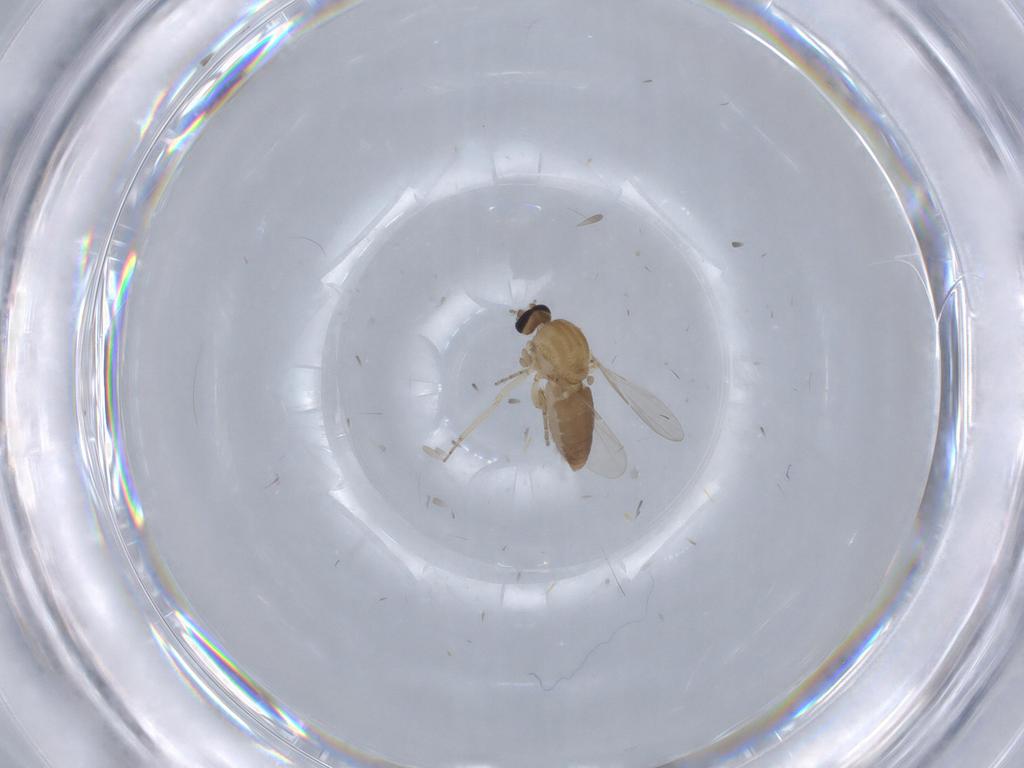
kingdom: Animalia
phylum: Arthropoda
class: Insecta
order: Diptera
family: Ceratopogonidae
